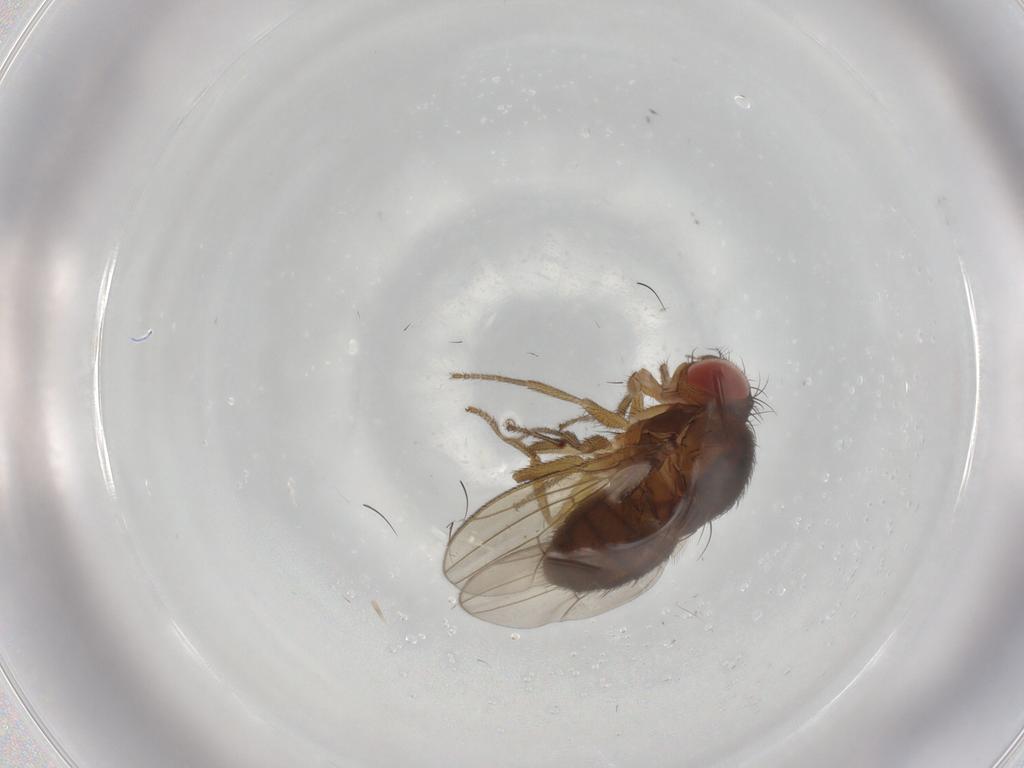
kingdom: Animalia
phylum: Arthropoda
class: Insecta
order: Diptera
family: Drosophilidae
